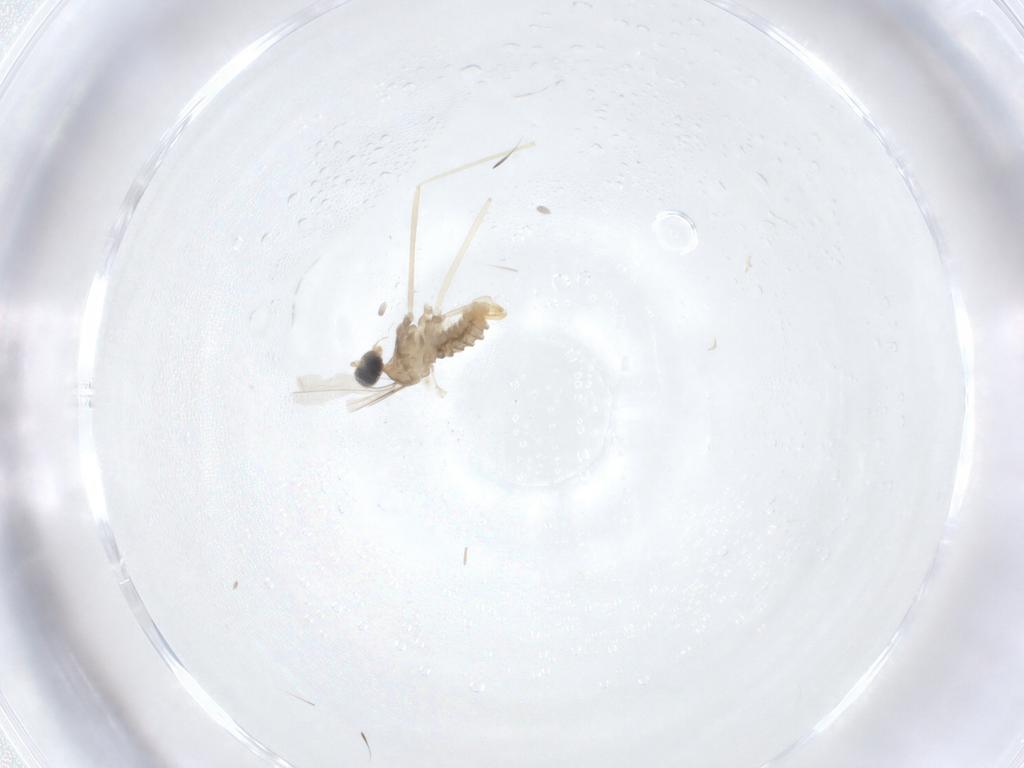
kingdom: Animalia
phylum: Arthropoda
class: Insecta
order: Diptera
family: Cecidomyiidae
